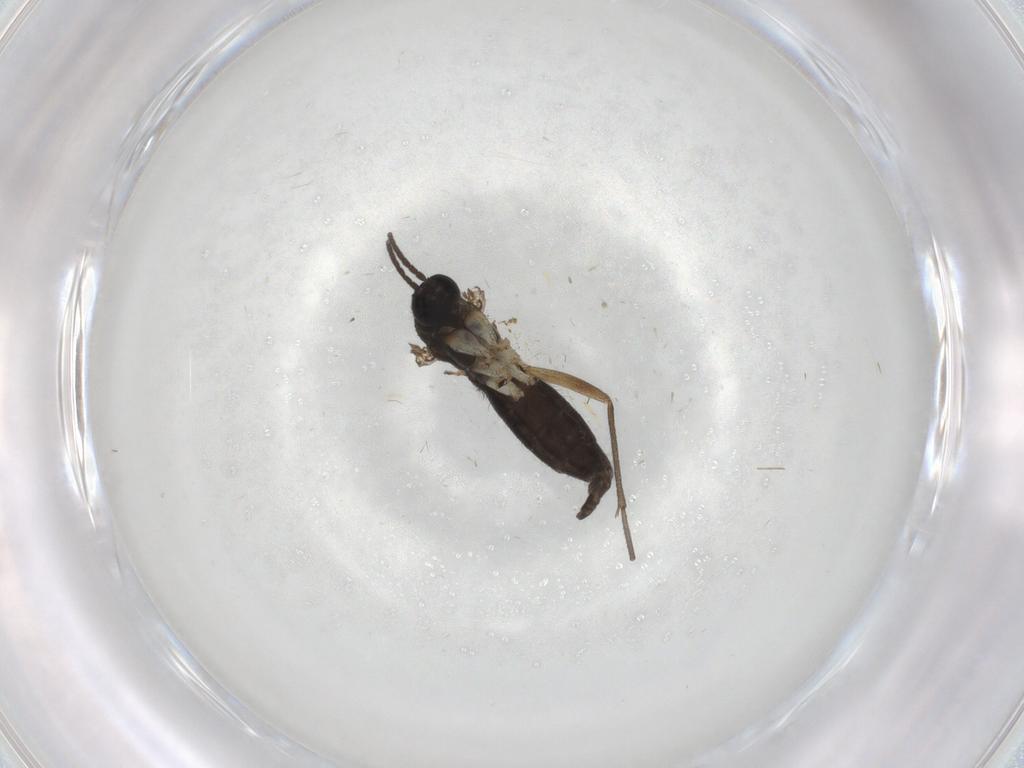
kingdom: Animalia
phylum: Arthropoda
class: Insecta
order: Diptera
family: Sciaridae
